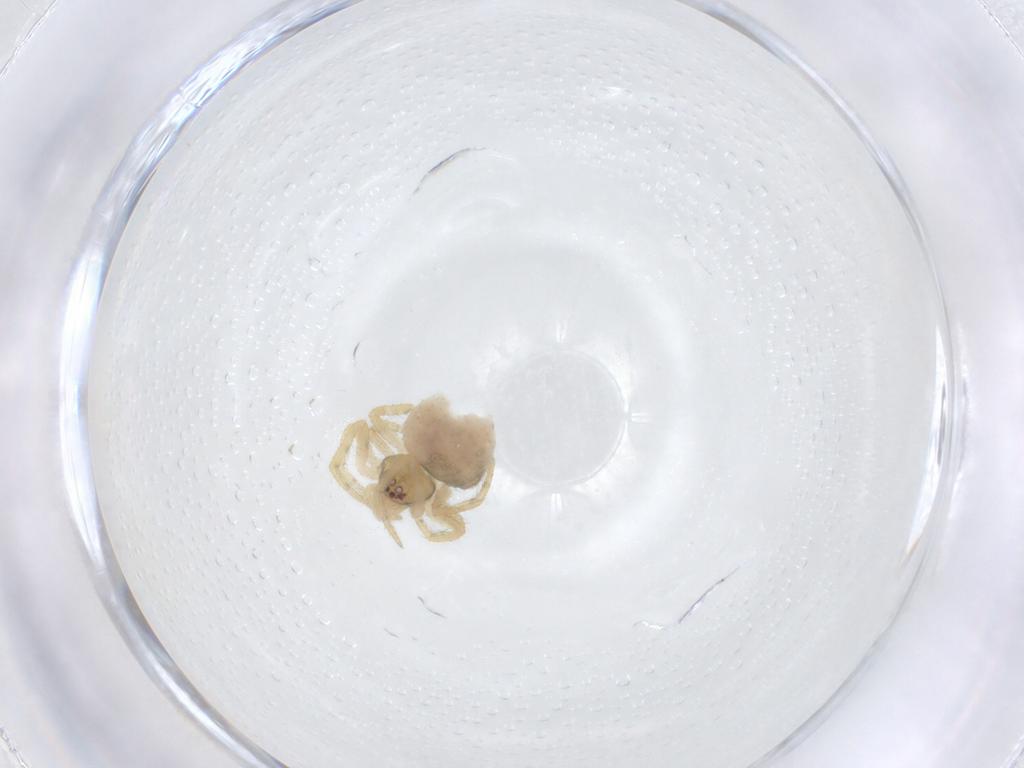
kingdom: Animalia
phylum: Arthropoda
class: Arachnida
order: Araneae
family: Theridiidae
